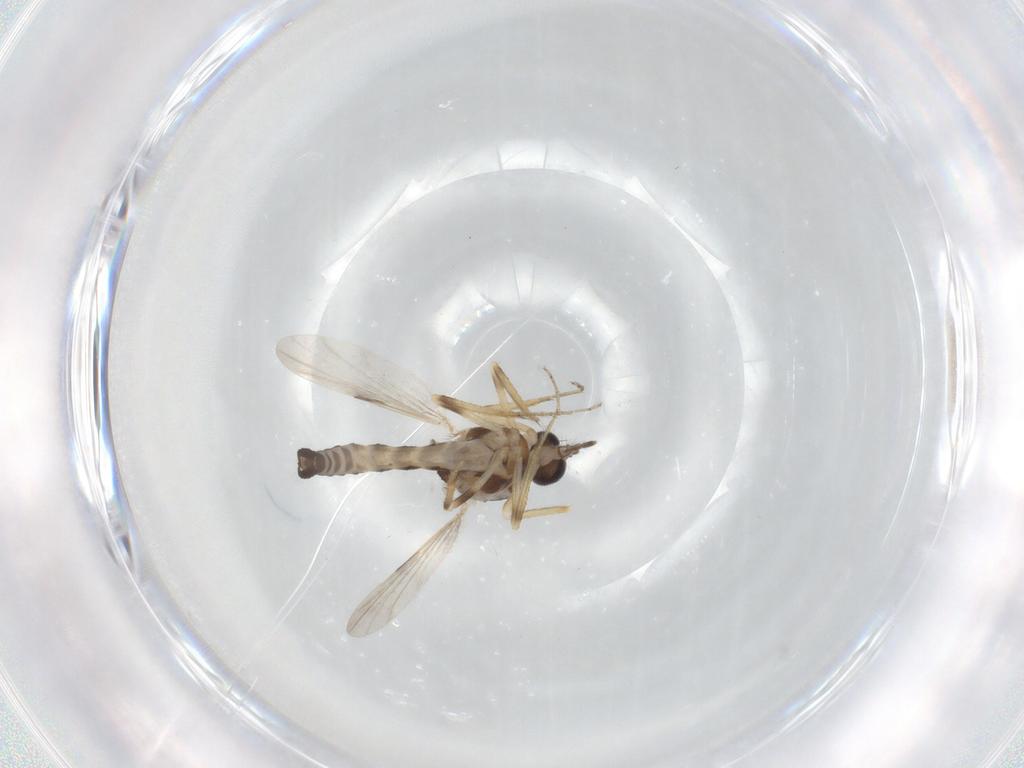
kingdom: Animalia
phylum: Arthropoda
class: Insecta
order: Diptera
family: Ceratopogonidae
